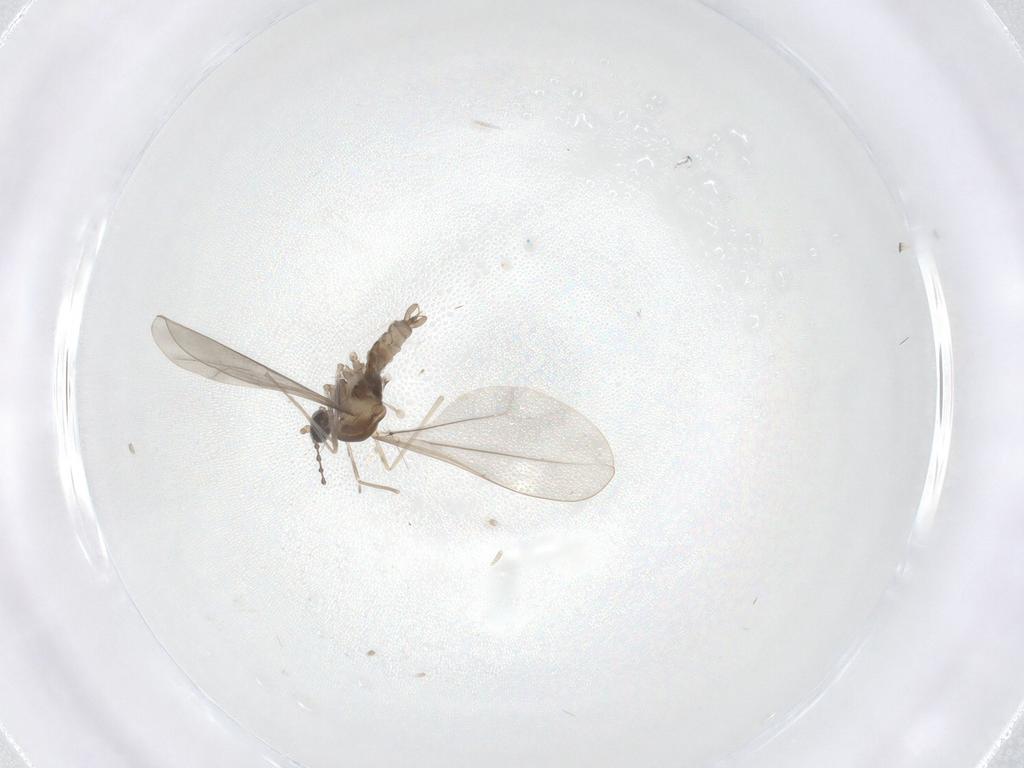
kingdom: Animalia
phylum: Arthropoda
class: Insecta
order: Diptera
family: Cecidomyiidae
